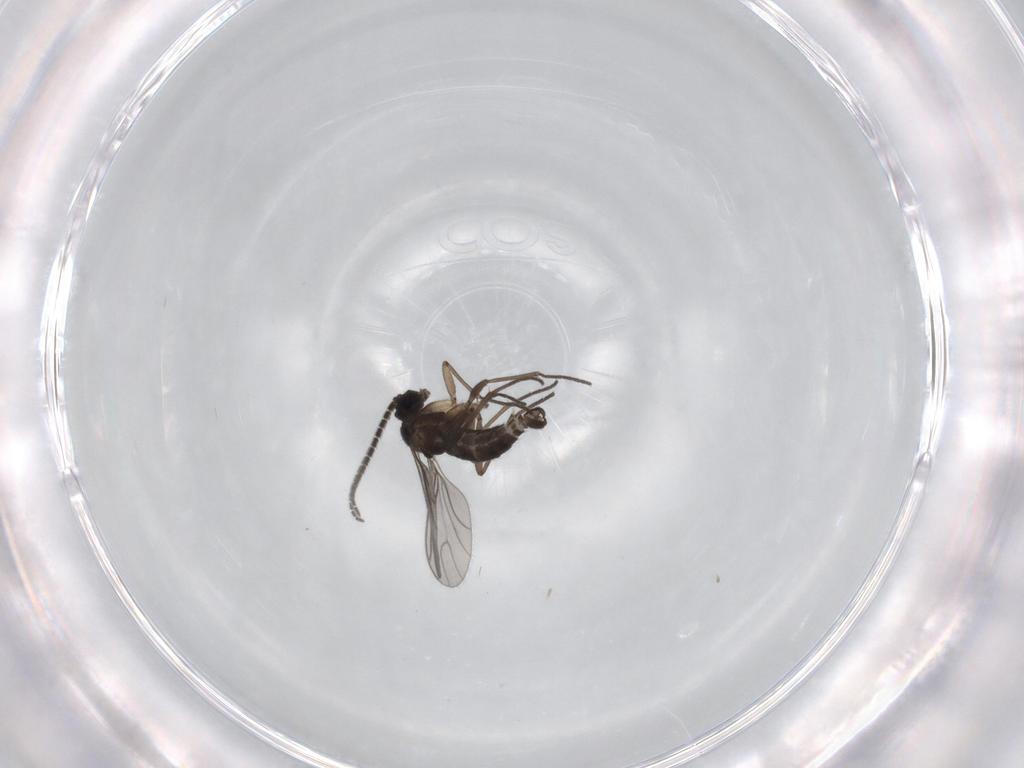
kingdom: Animalia
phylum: Arthropoda
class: Insecta
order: Diptera
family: Sciaridae
